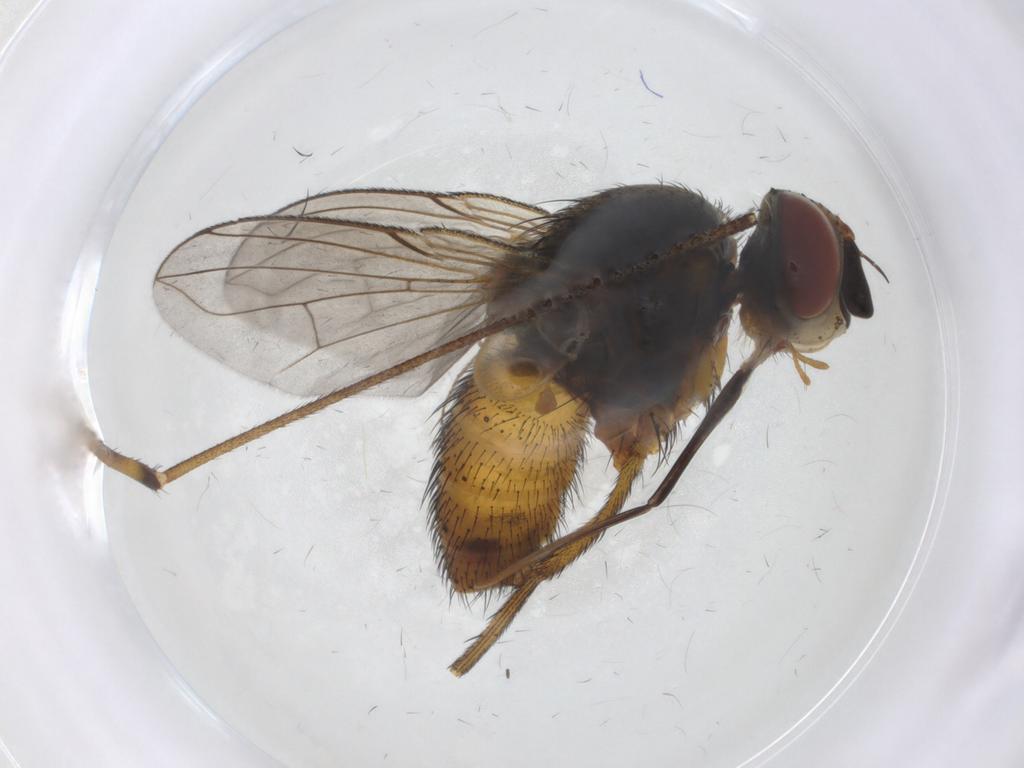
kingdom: Animalia
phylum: Arthropoda
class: Insecta
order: Diptera
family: Tachinidae
